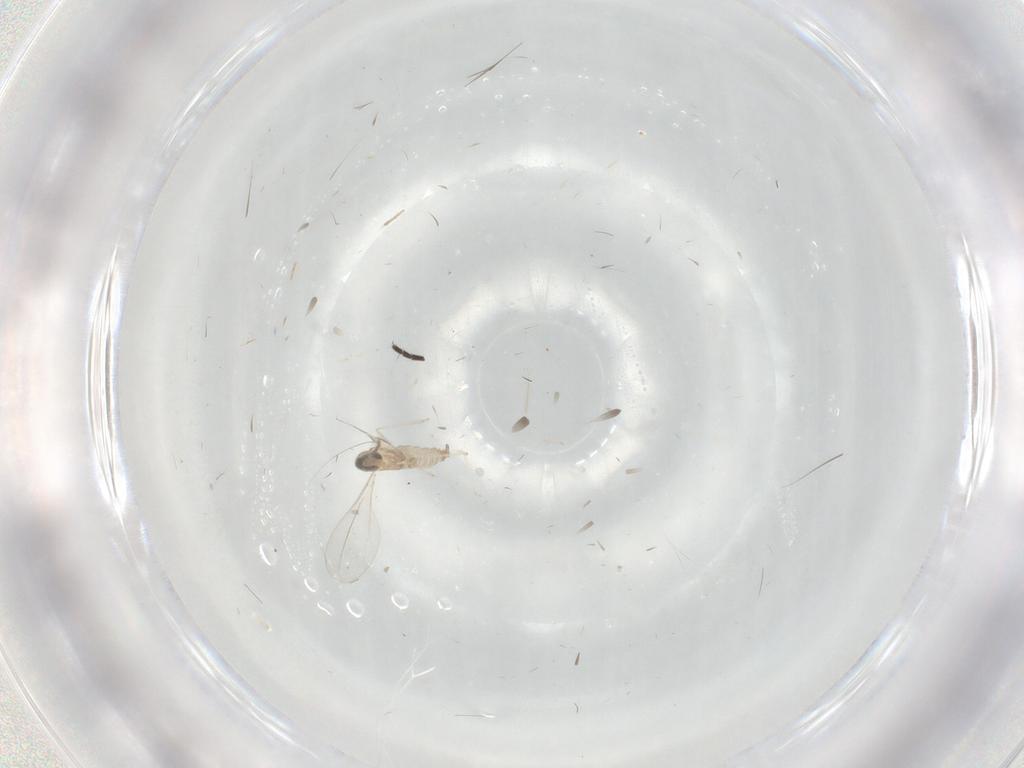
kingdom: Animalia
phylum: Arthropoda
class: Insecta
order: Diptera
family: Cecidomyiidae
